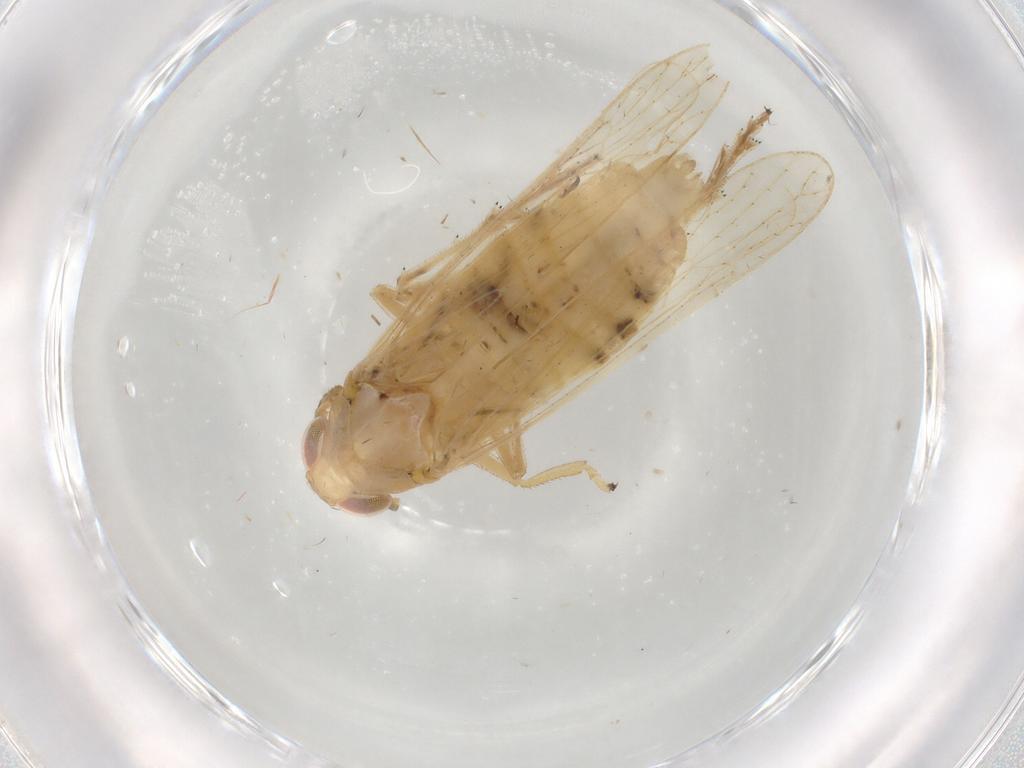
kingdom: Animalia
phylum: Arthropoda
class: Insecta
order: Hemiptera
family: Delphacidae
